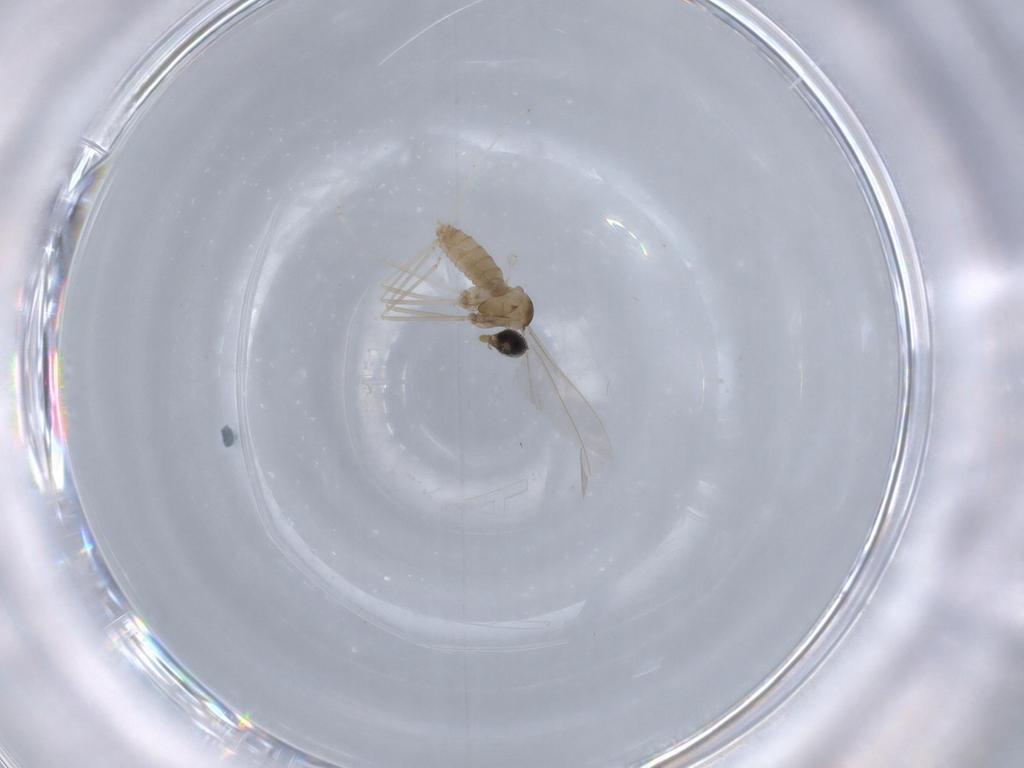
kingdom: Animalia
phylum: Arthropoda
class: Insecta
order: Diptera
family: Cecidomyiidae
